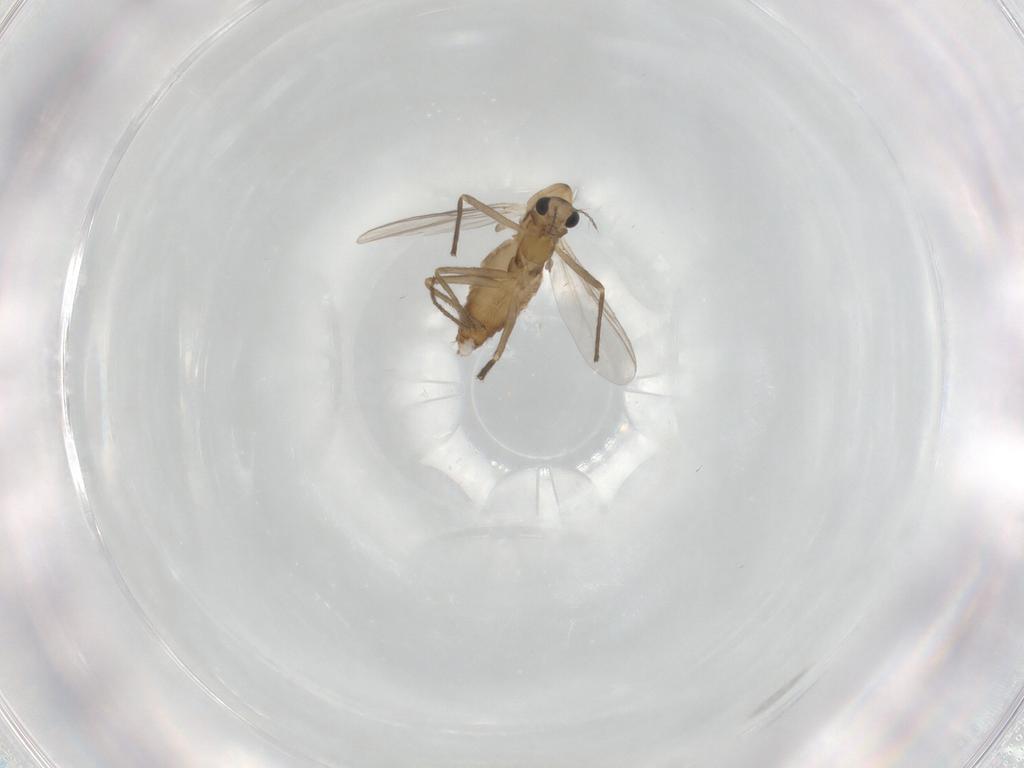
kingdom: Animalia
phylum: Arthropoda
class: Insecta
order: Diptera
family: Chironomidae
